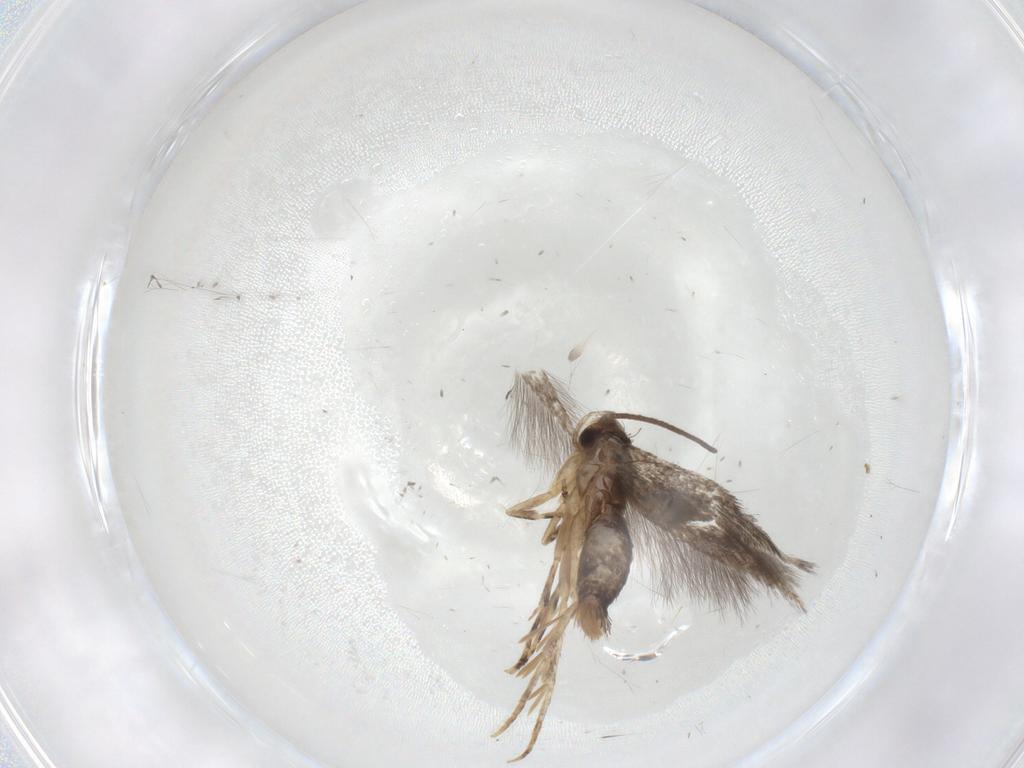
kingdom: Animalia
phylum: Arthropoda
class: Insecta
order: Lepidoptera
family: Elachistidae
